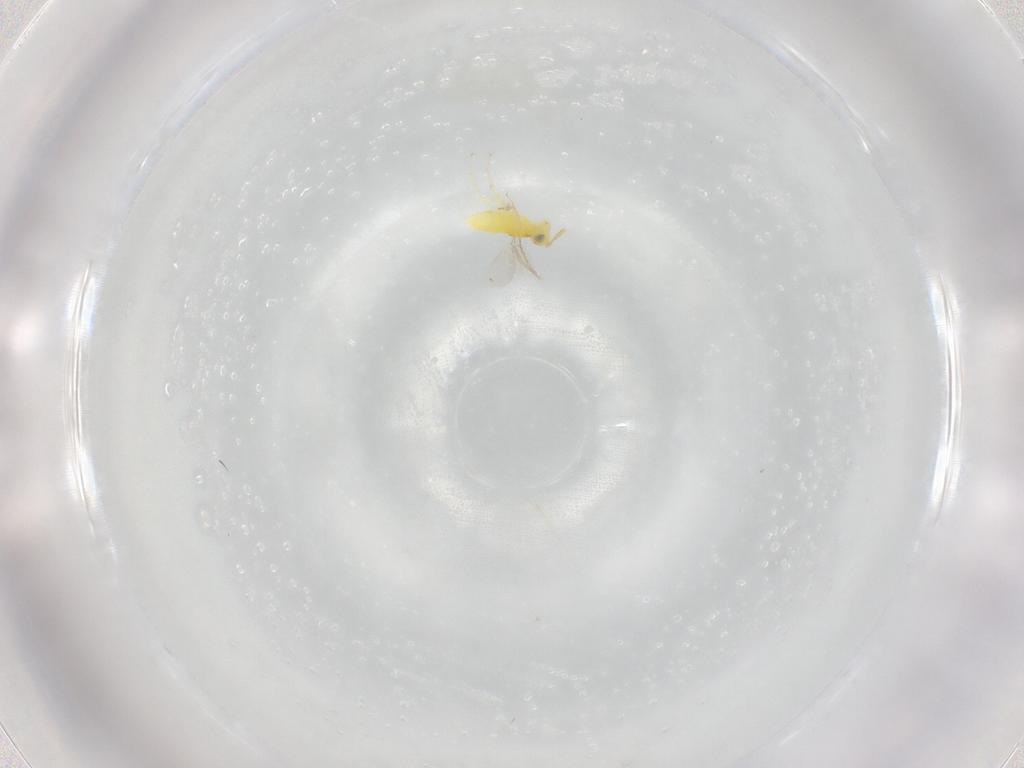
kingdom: Animalia
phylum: Arthropoda
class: Insecta
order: Hymenoptera
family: Aphelinidae
